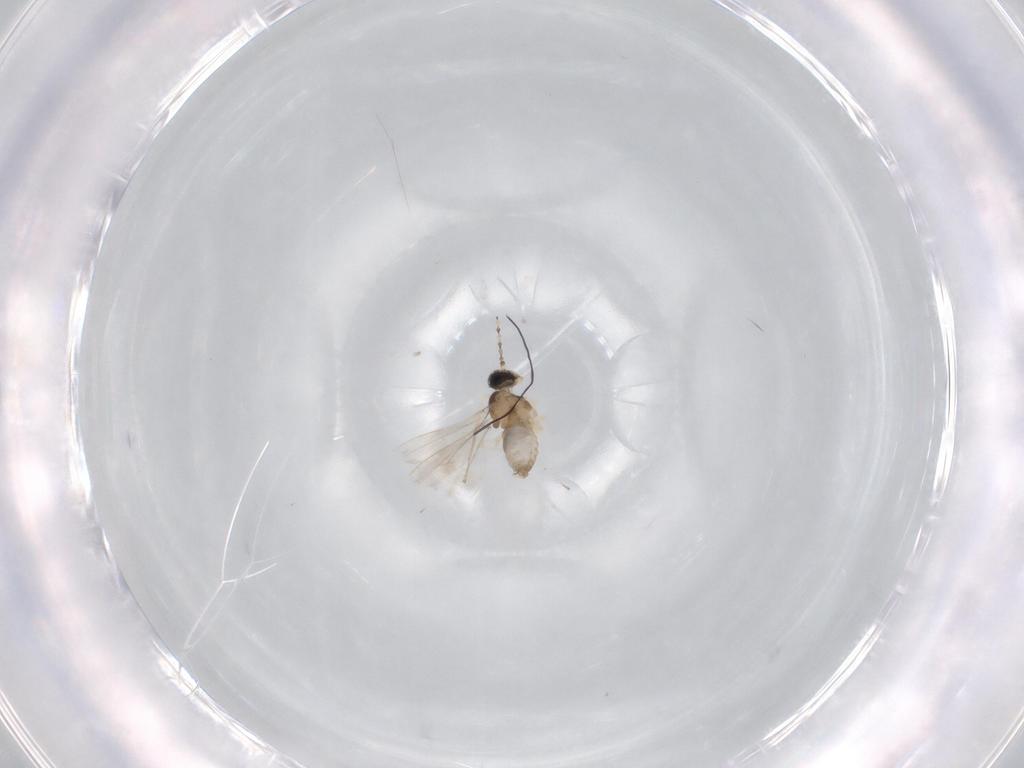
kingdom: Animalia
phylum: Arthropoda
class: Insecta
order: Diptera
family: Cecidomyiidae
